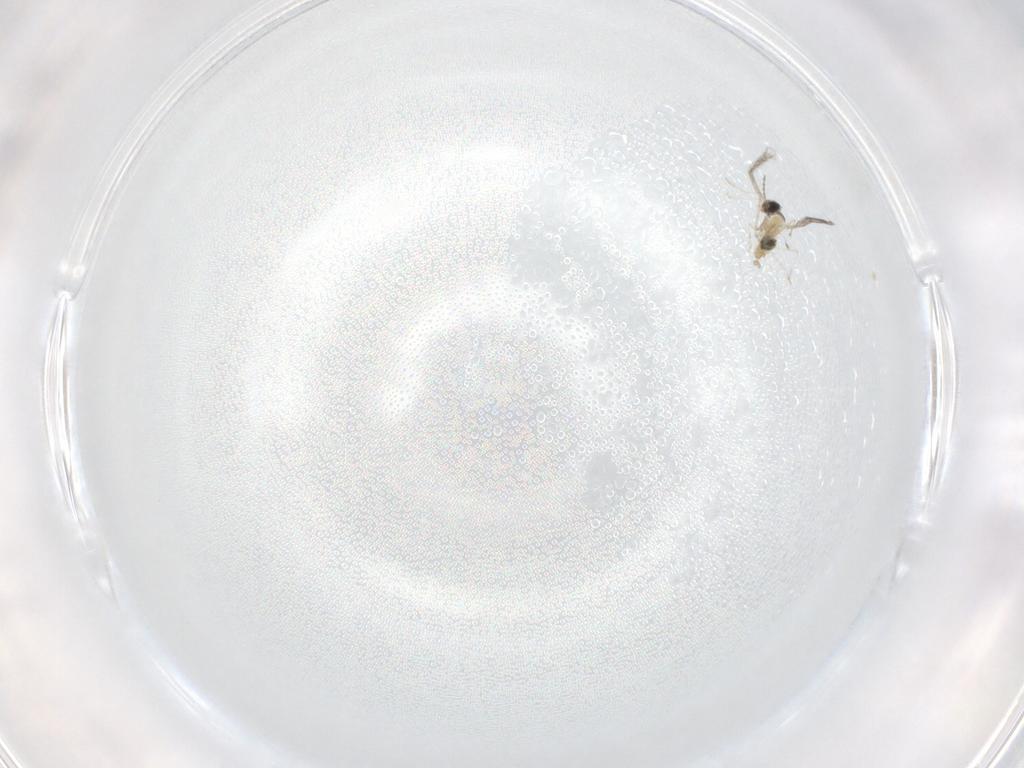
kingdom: Animalia
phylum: Arthropoda
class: Insecta
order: Diptera
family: Cecidomyiidae
